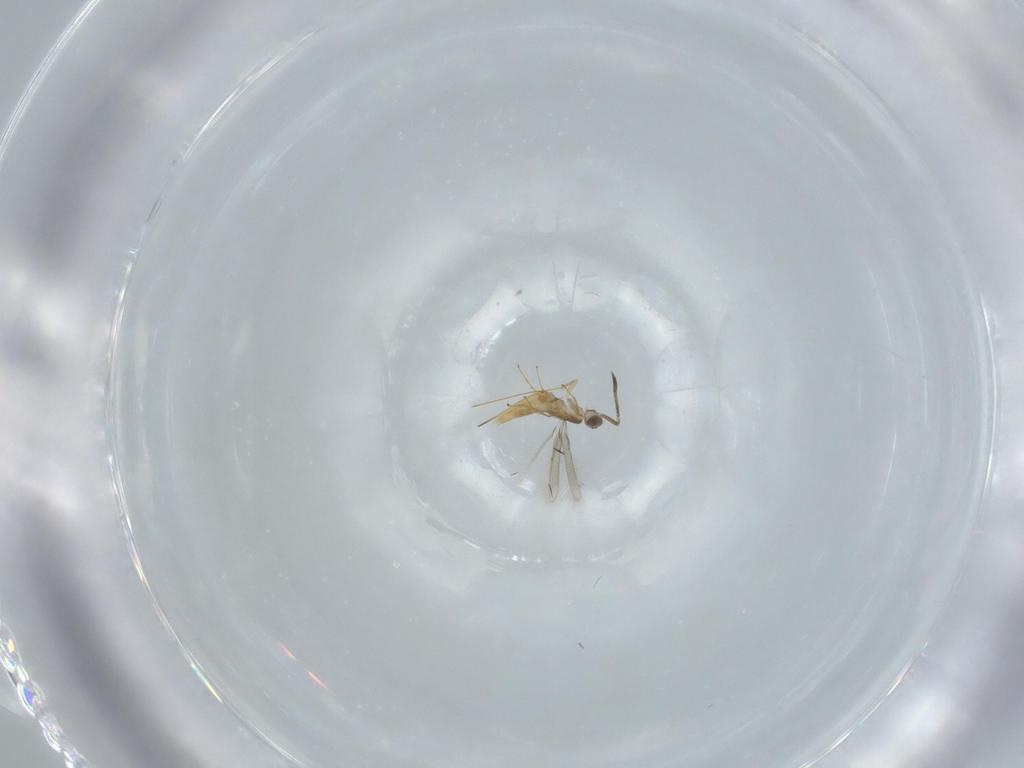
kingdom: Animalia
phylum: Arthropoda
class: Insecta
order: Hymenoptera
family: Mymaridae
